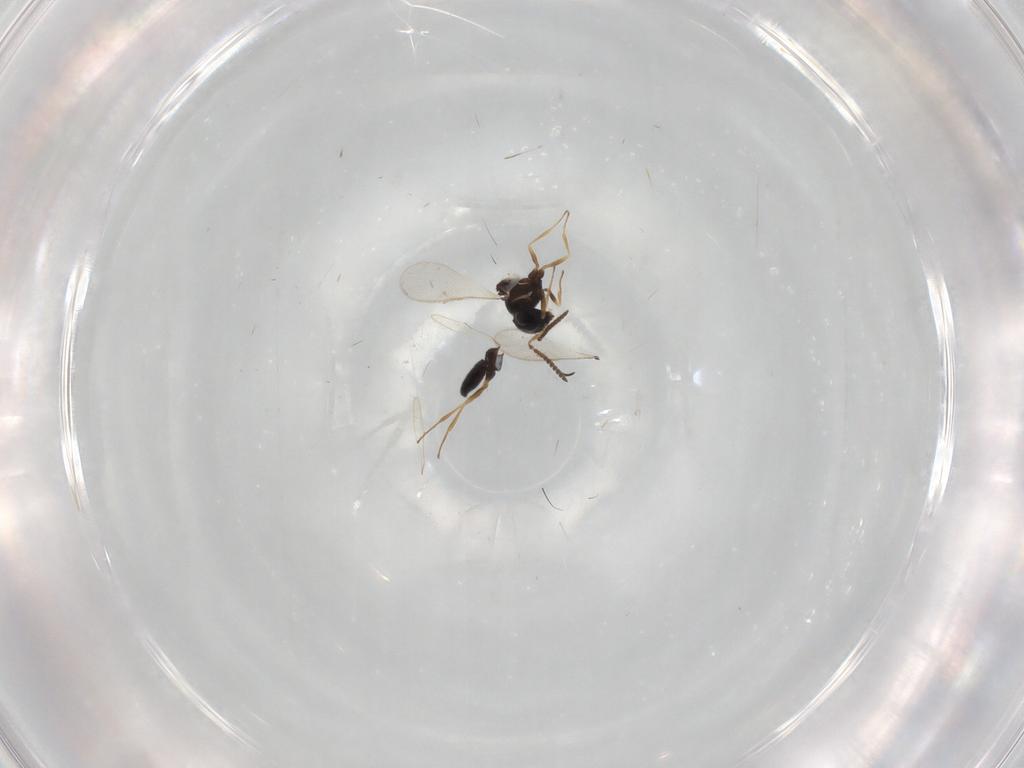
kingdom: Animalia
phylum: Arthropoda
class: Insecta
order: Hymenoptera
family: Scelionidae
